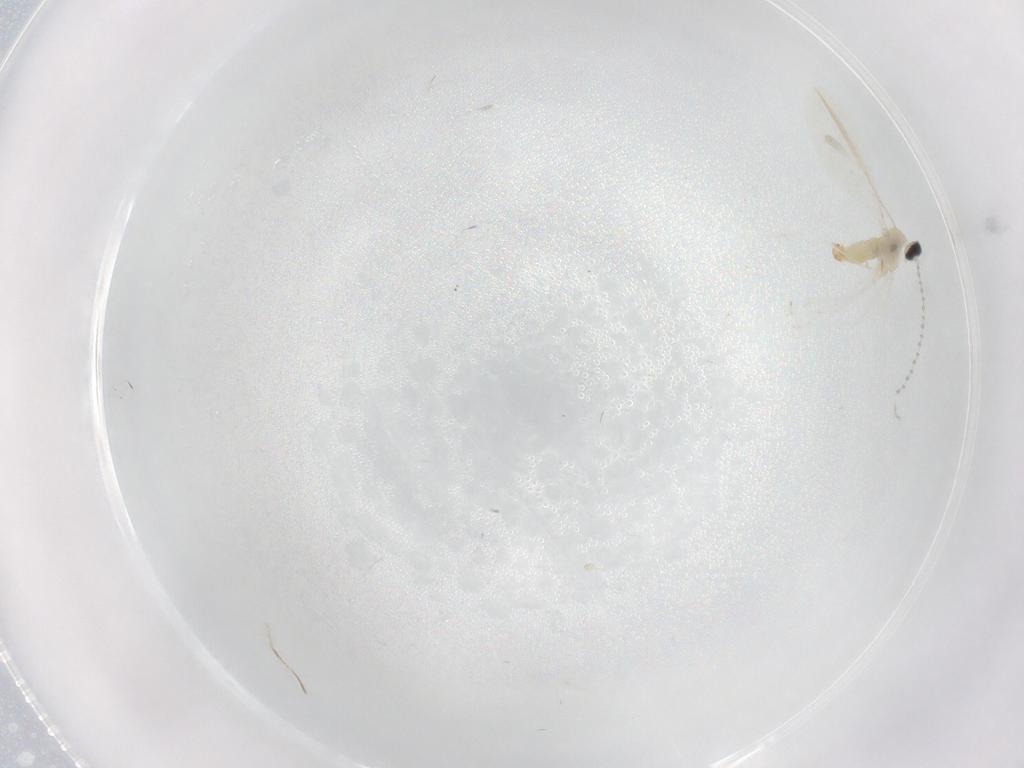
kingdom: Animalia
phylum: Arthropoda
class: Insecta
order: Diptera
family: Cecidomyiidae
